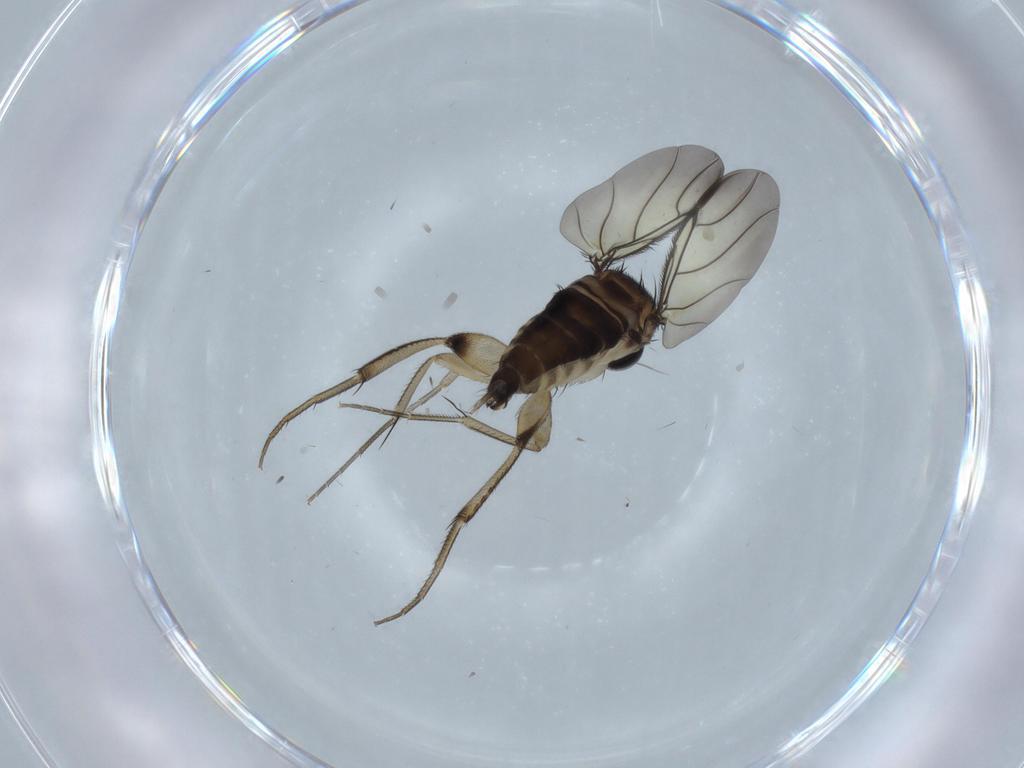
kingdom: Animalia
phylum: Arthropoda
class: Insecta
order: Diptera
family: Phoridae
